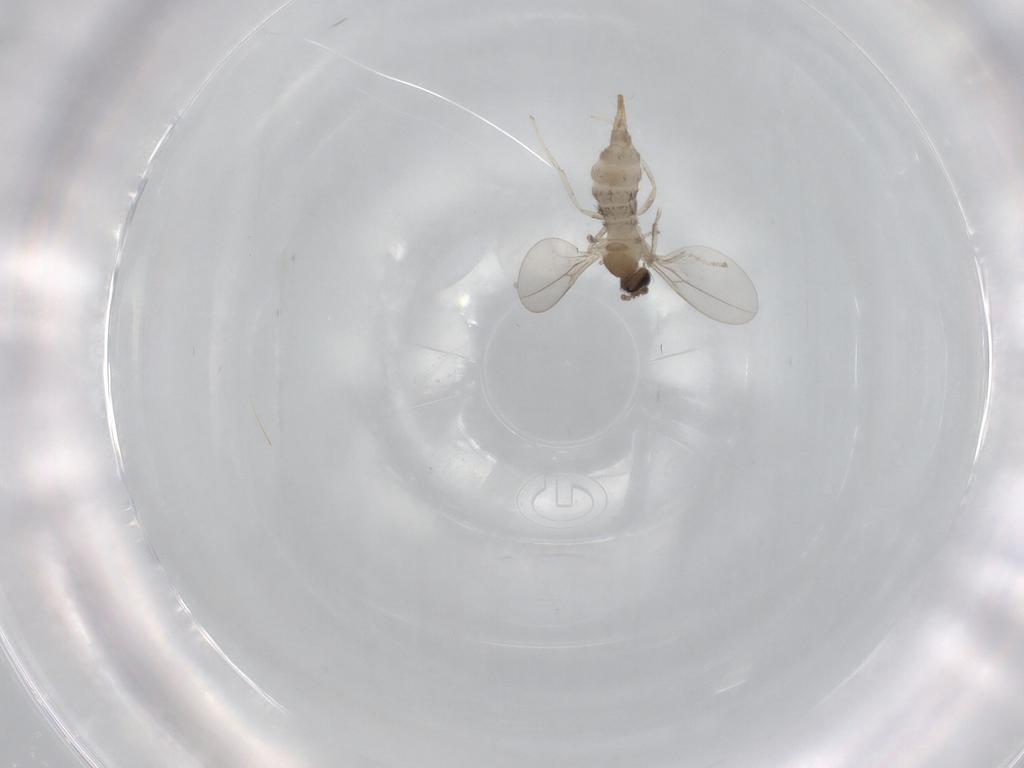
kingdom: Animalia
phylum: Arthropoda
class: Insecta
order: Diptera
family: Cecidomyiidae
